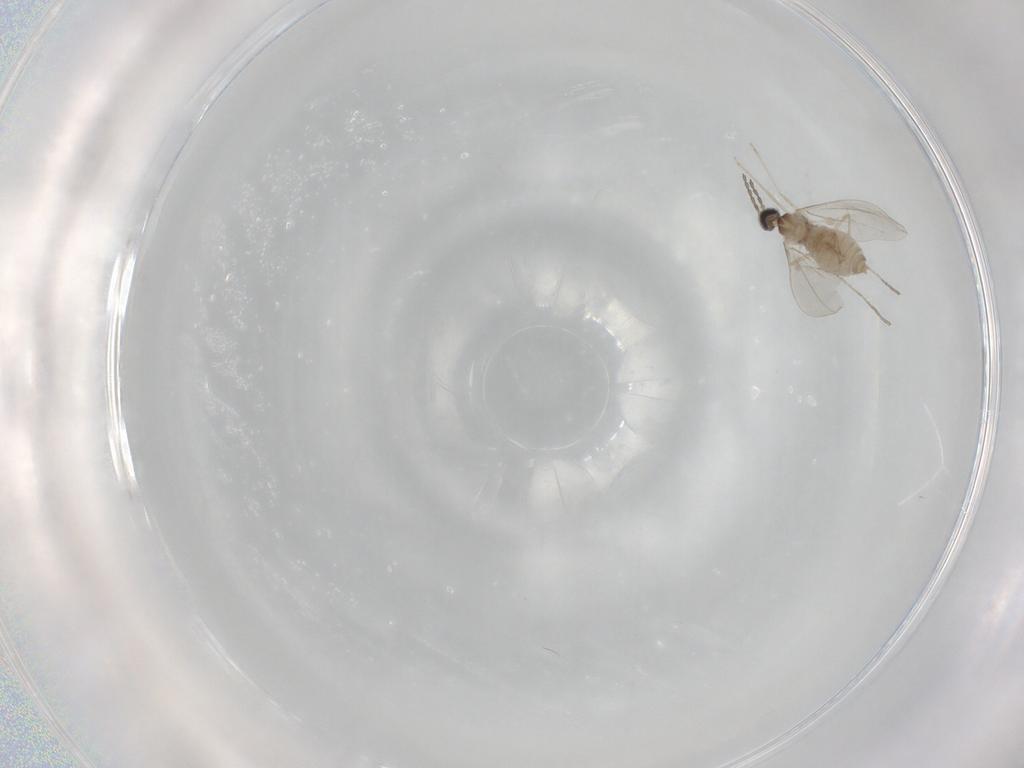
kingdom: Animalia
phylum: Arthropoda
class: Insecta
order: Diptera
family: Cecidomyiidae
